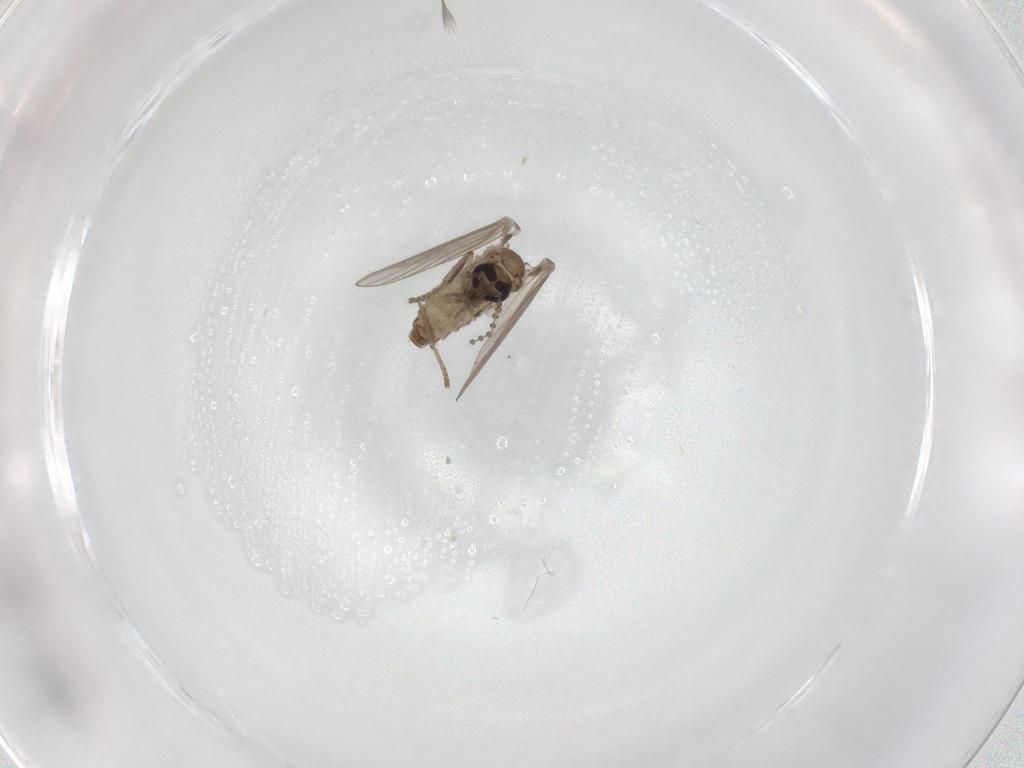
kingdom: Animalia
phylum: Arthropoda
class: Insecta
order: Diptera
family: Psychodidae
